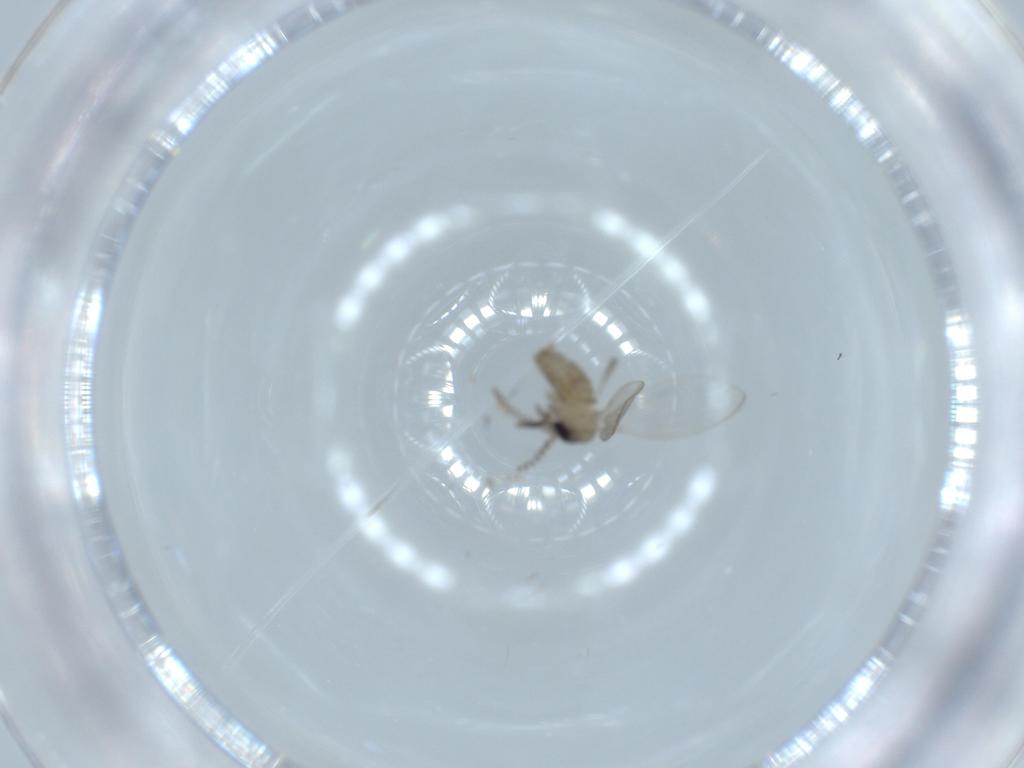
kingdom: Animalia
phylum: Arthropoda
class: Insecta
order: Diptera
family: Psychodidae
